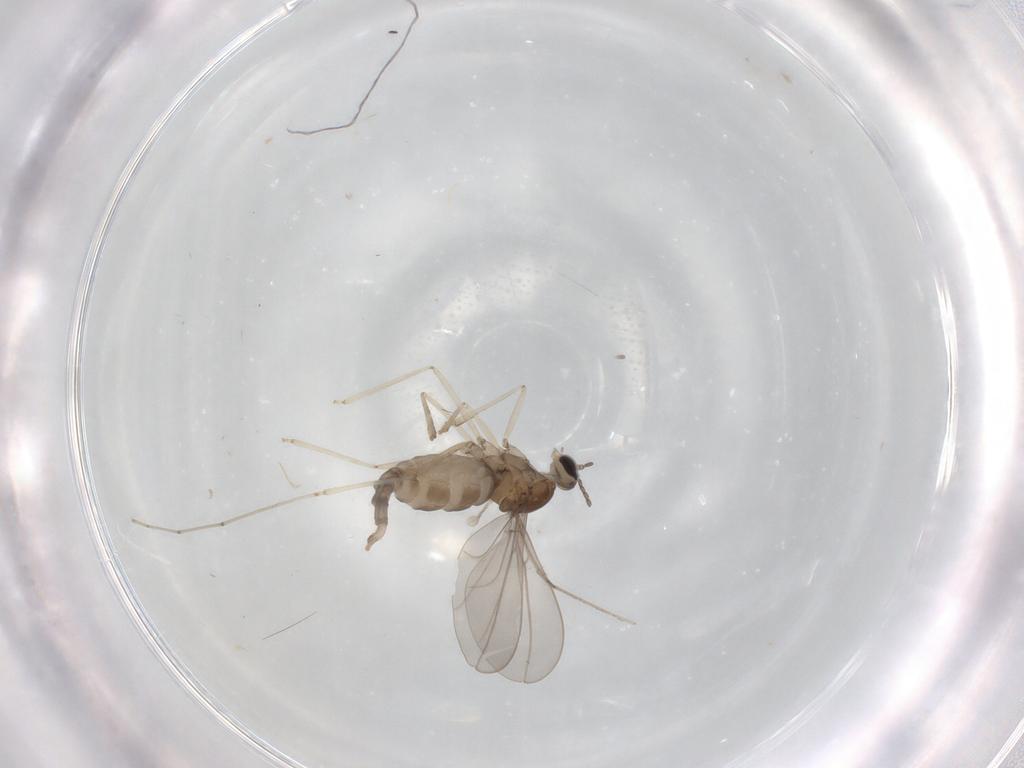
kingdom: Animalia
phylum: Arthropoda
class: Insecta
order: Diptera
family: Cecidomyiidae
